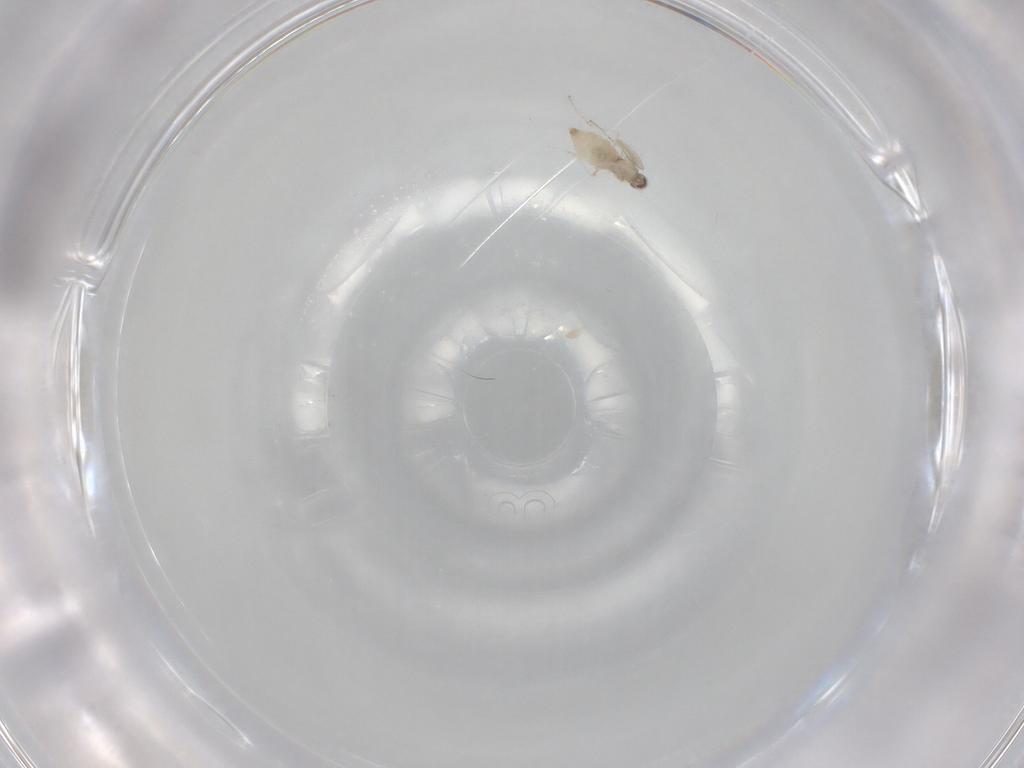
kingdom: Animalia
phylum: Arthropoda
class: Insecta
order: Diptera
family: Cecidomyiidae
